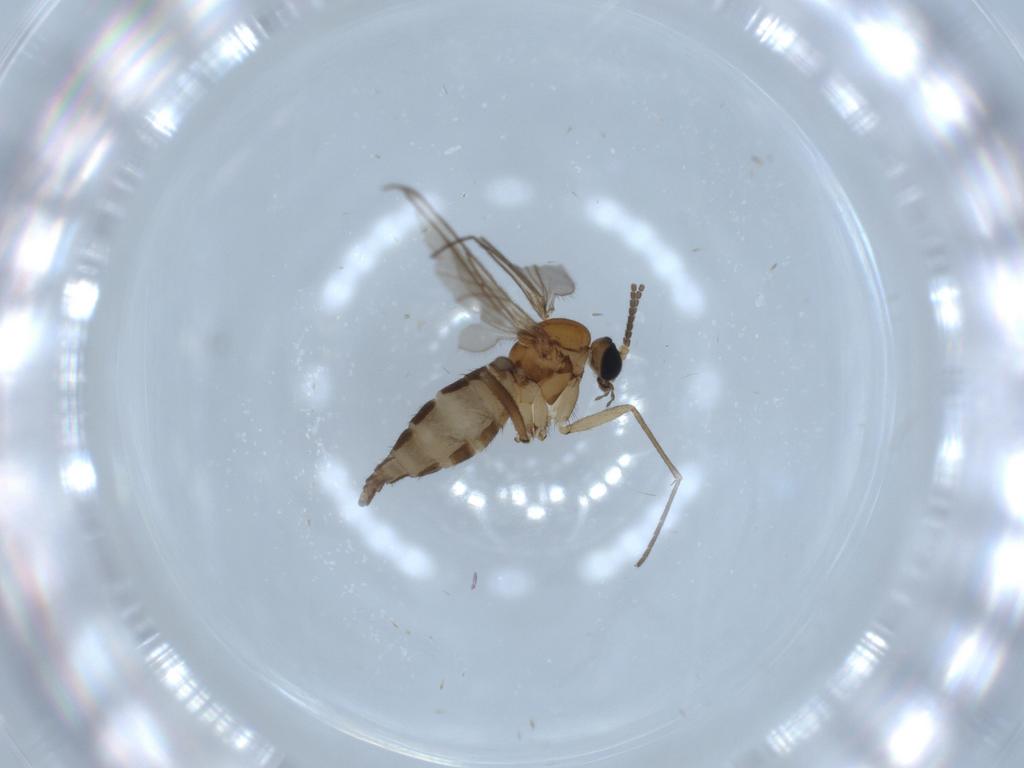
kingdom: Animalia
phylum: Arthropoda
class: Insecta
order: Diptera
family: Sciaridae
